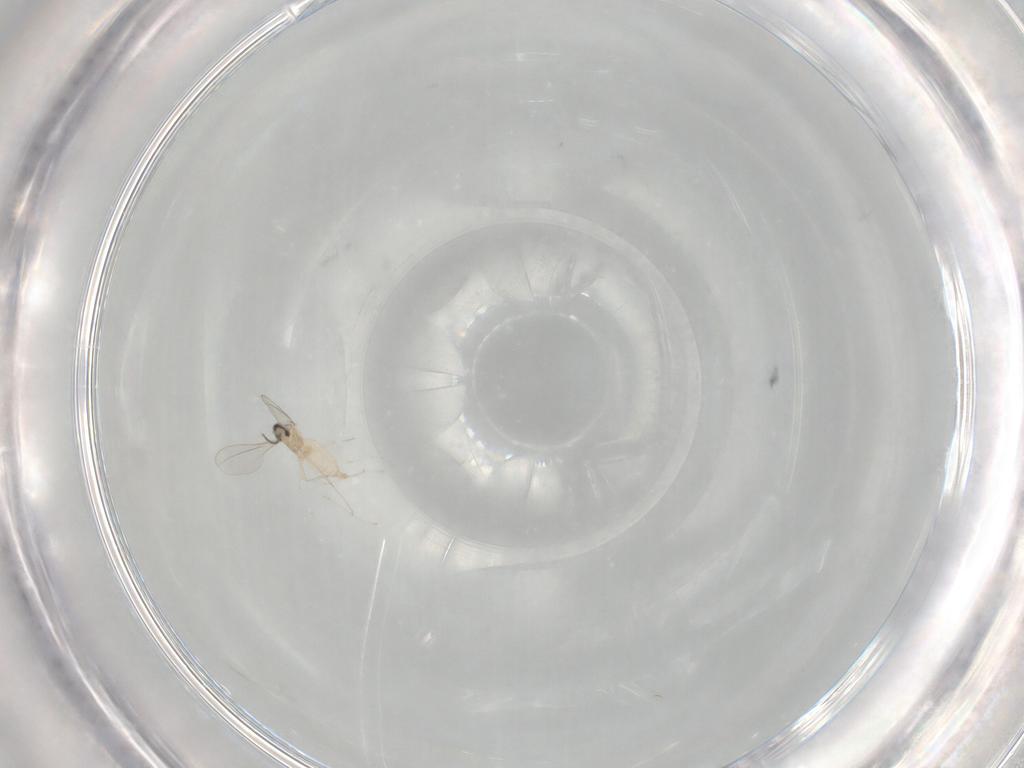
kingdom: Animalia
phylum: Arthropoda
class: Insecta
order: Diptera
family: Cecidomyiidae
